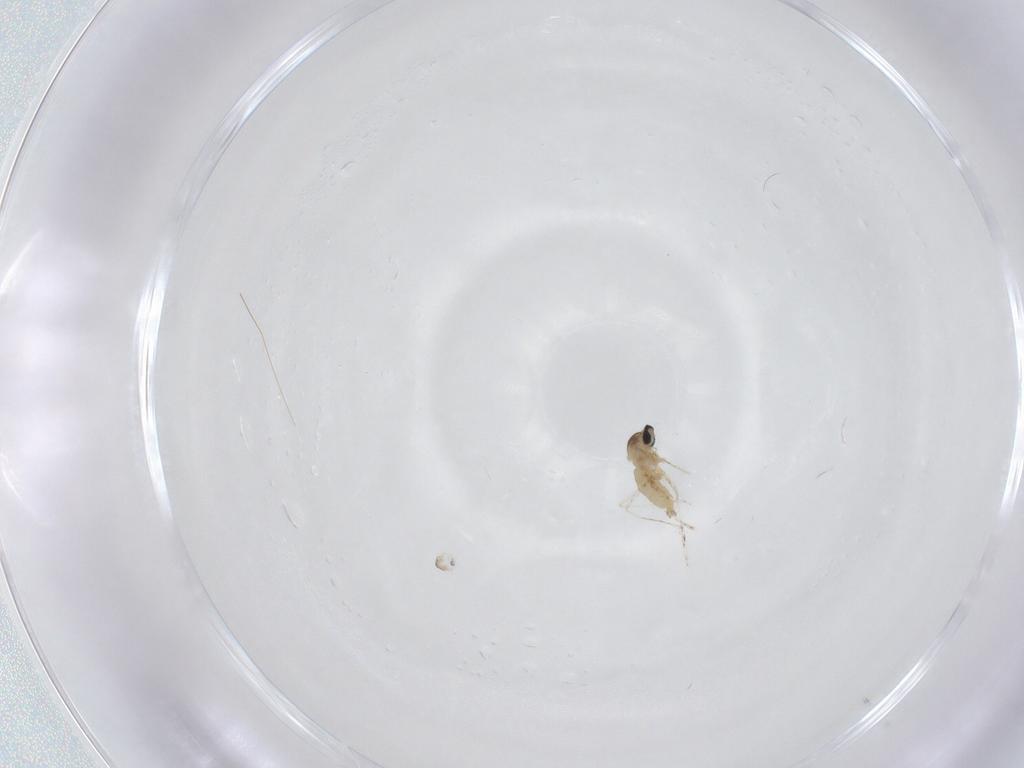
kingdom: Animalia
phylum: Arthropoda
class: Insecta
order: Diptera
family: Cecidomyiidae
